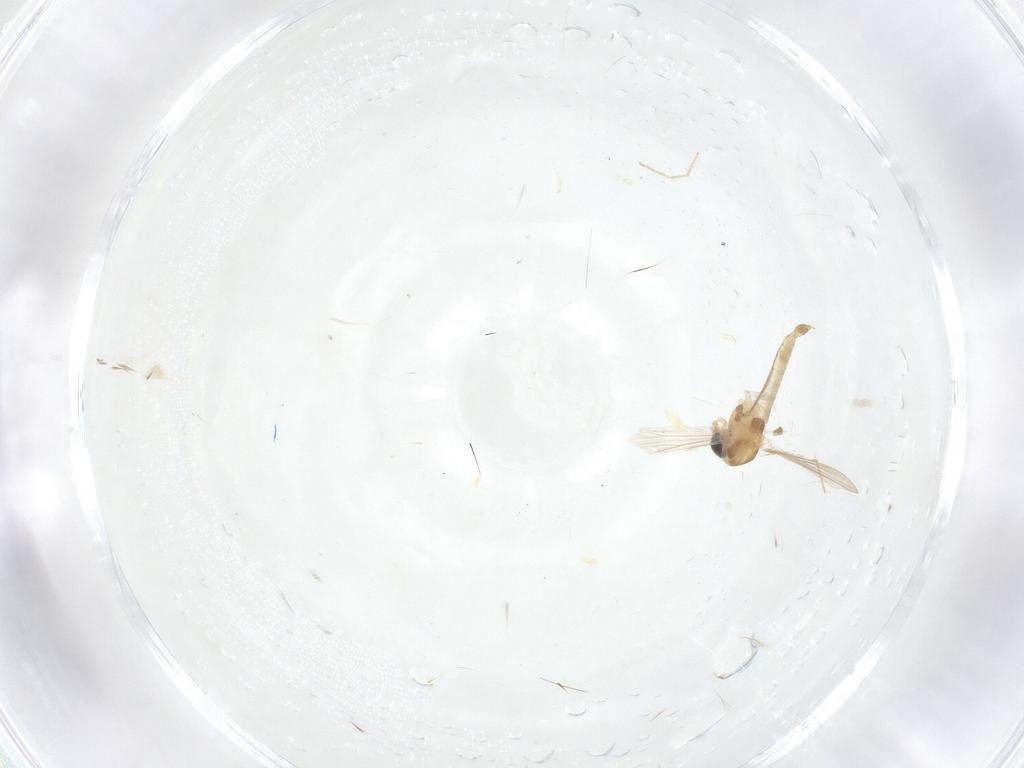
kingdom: Animalia
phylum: Arthropoda
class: Insecta
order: Diptera
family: Chironomidae
